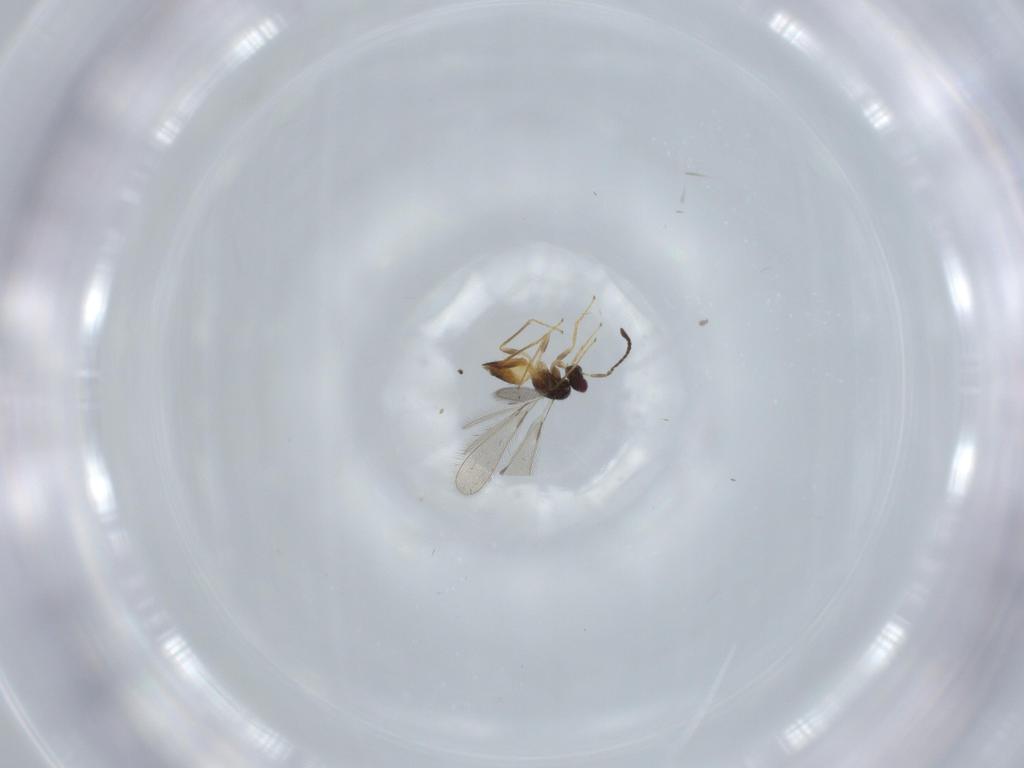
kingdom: Animalia
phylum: Arthropoda
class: Insecta
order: Hymenoptera
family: Mymaridae
